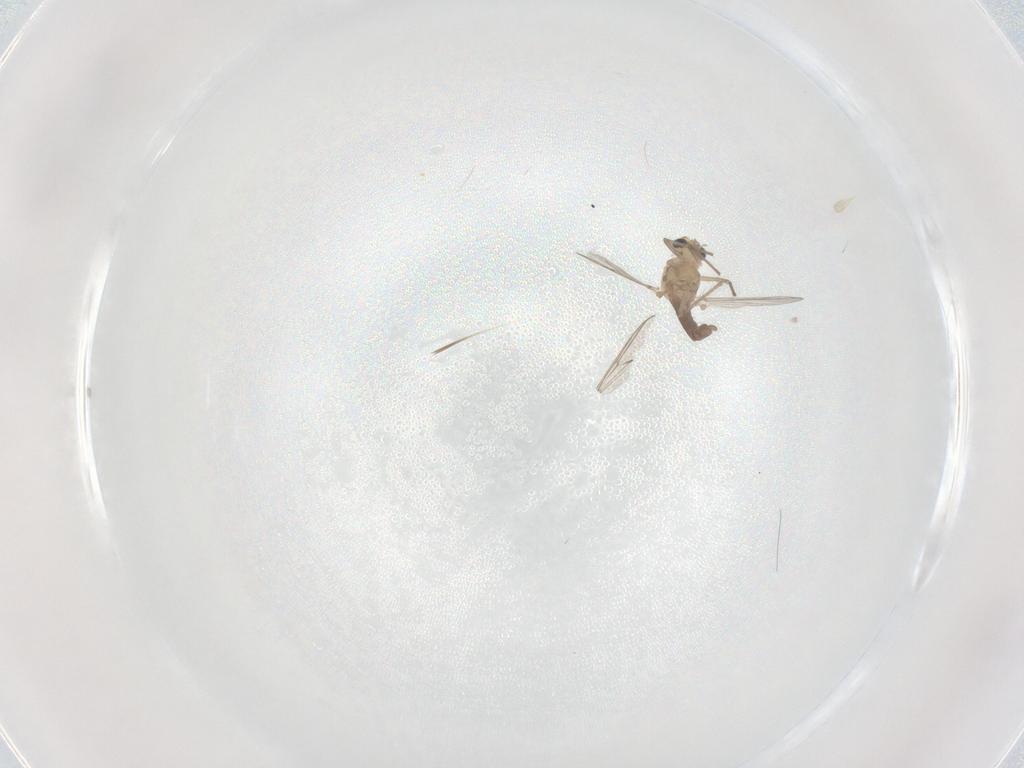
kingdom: Animalia
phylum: Arthropoda
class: Insecta
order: Diptera
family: Chironomidae
